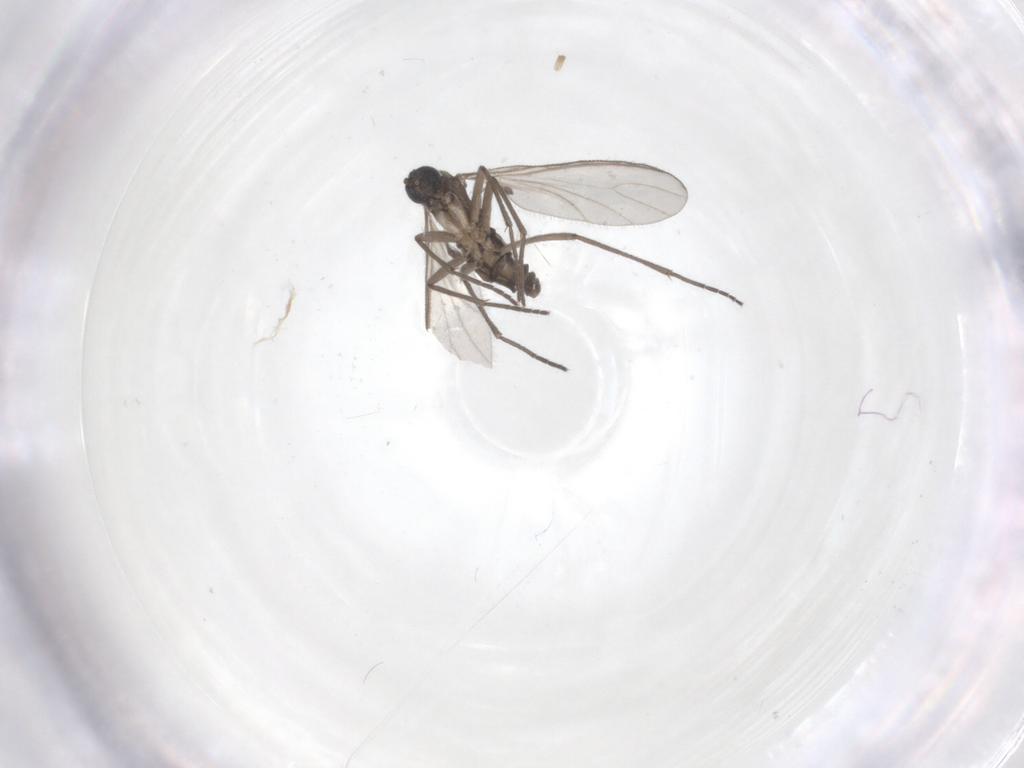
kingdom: Animalia
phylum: Arthropoda
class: Insecta
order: Diptera
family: Sciaridae
